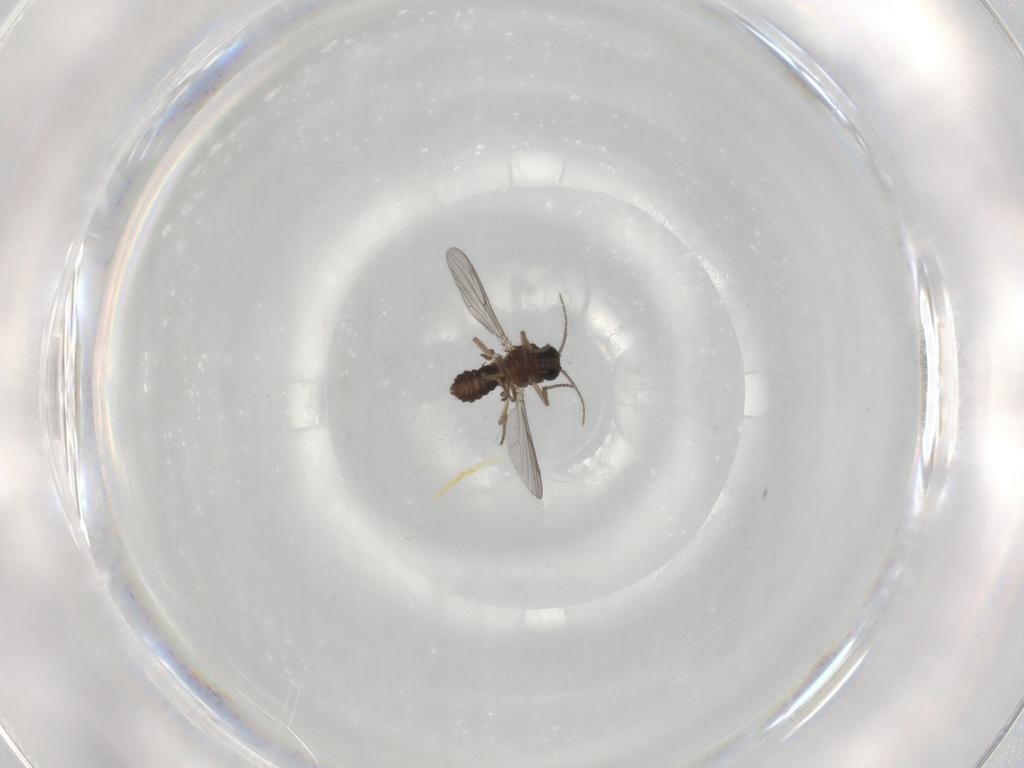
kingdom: Animalia
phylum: Arthropoda
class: Insecta
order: Diptera
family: Ceratopogonidae
